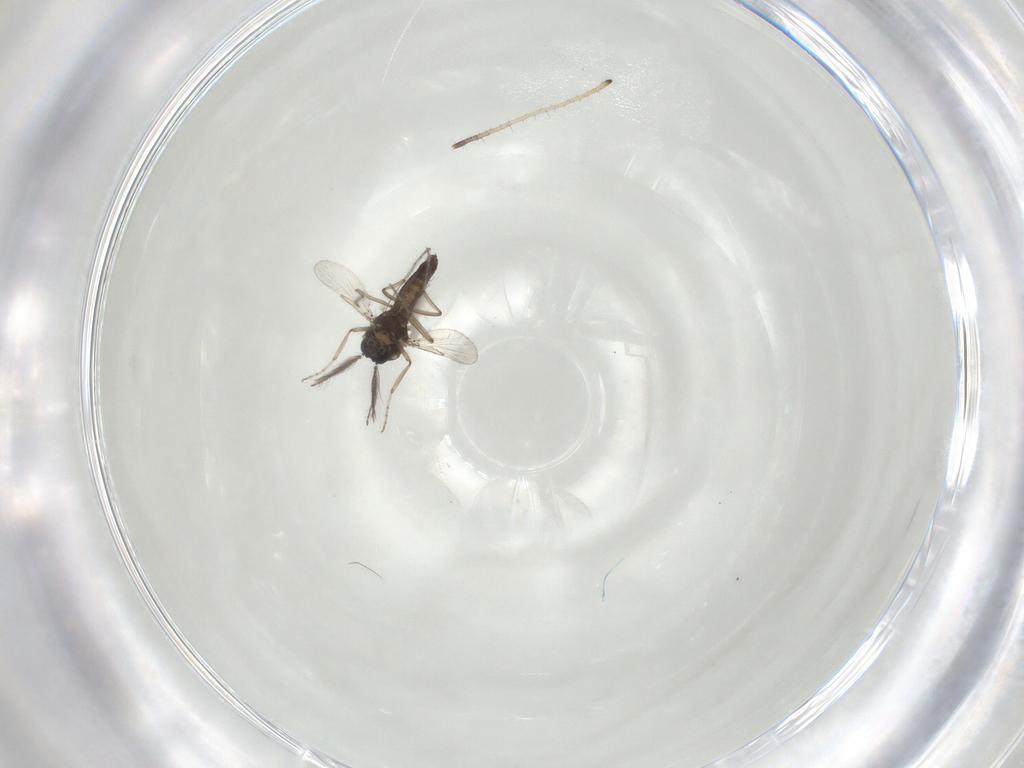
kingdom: Animalia
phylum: Arthropoda
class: Insecta
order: Diptera
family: Ceratopogonidae
